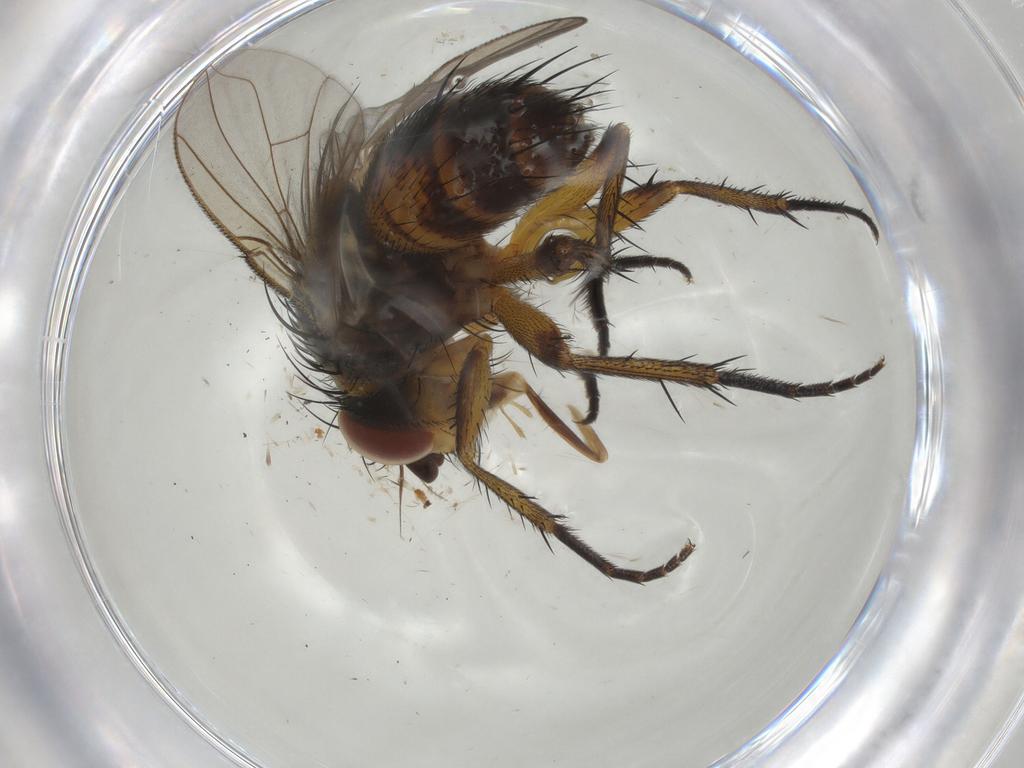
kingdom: Animalia
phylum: Arthropoda
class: Insecta
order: Diptera
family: Tachinidae
